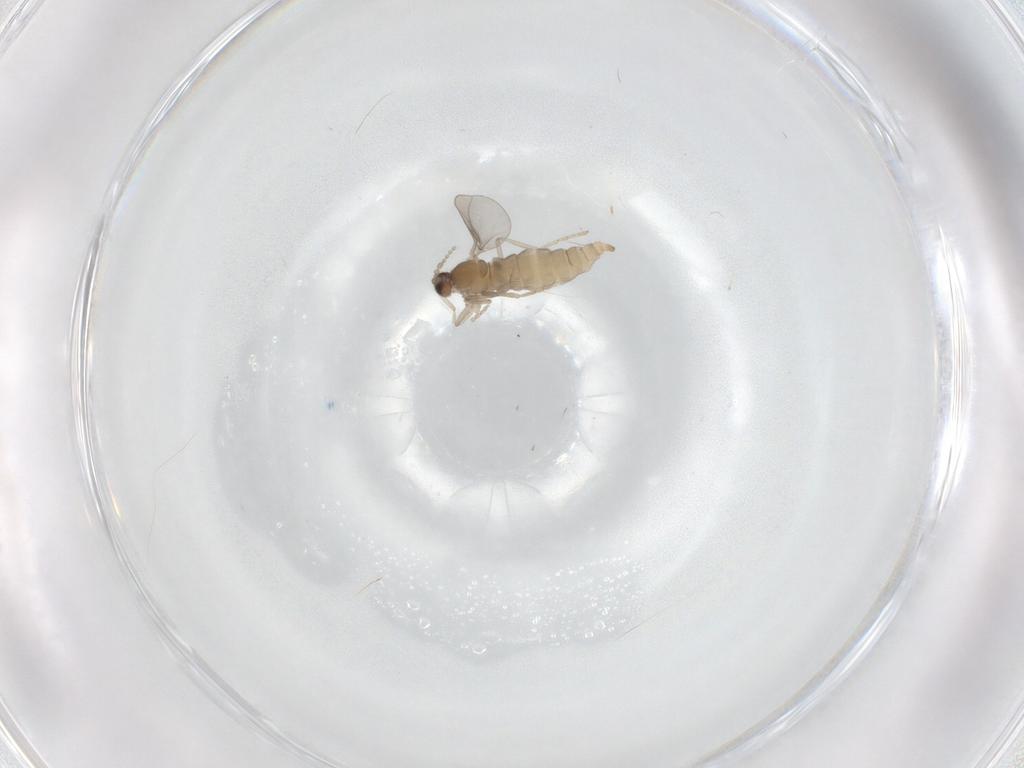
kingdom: Animalia
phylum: Arthropoda
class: Insecta
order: Diptera
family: Cecidomyiidae
